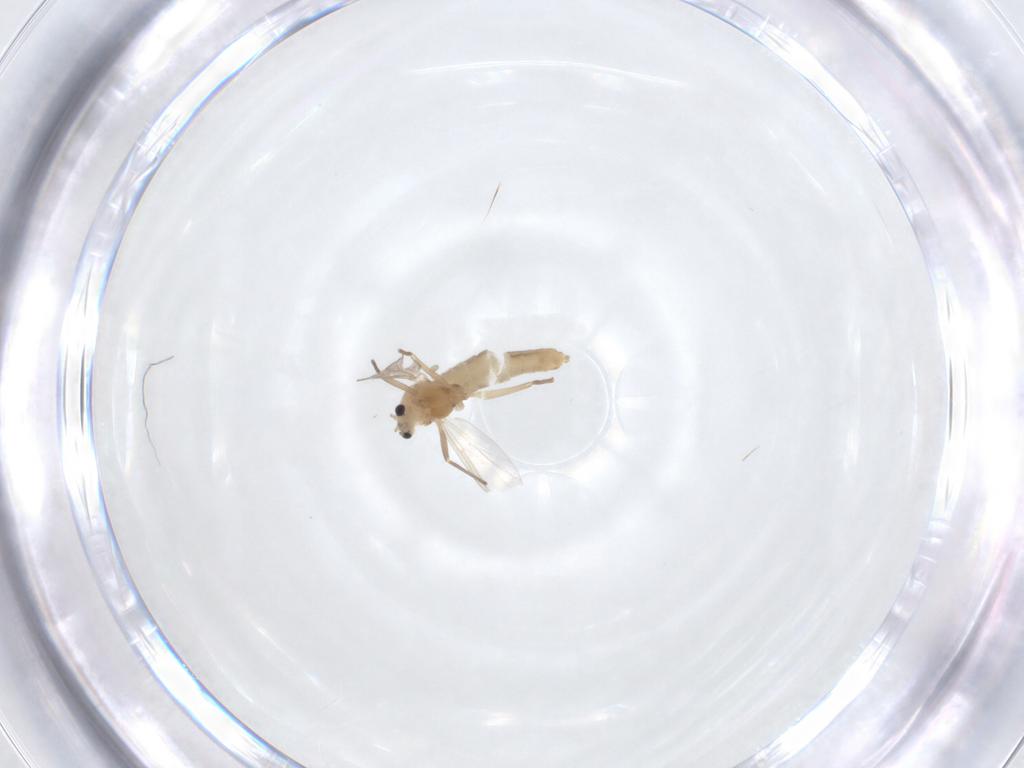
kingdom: Animalia
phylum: Arthropoda
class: Insecta
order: Diptera
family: Chironomidae
